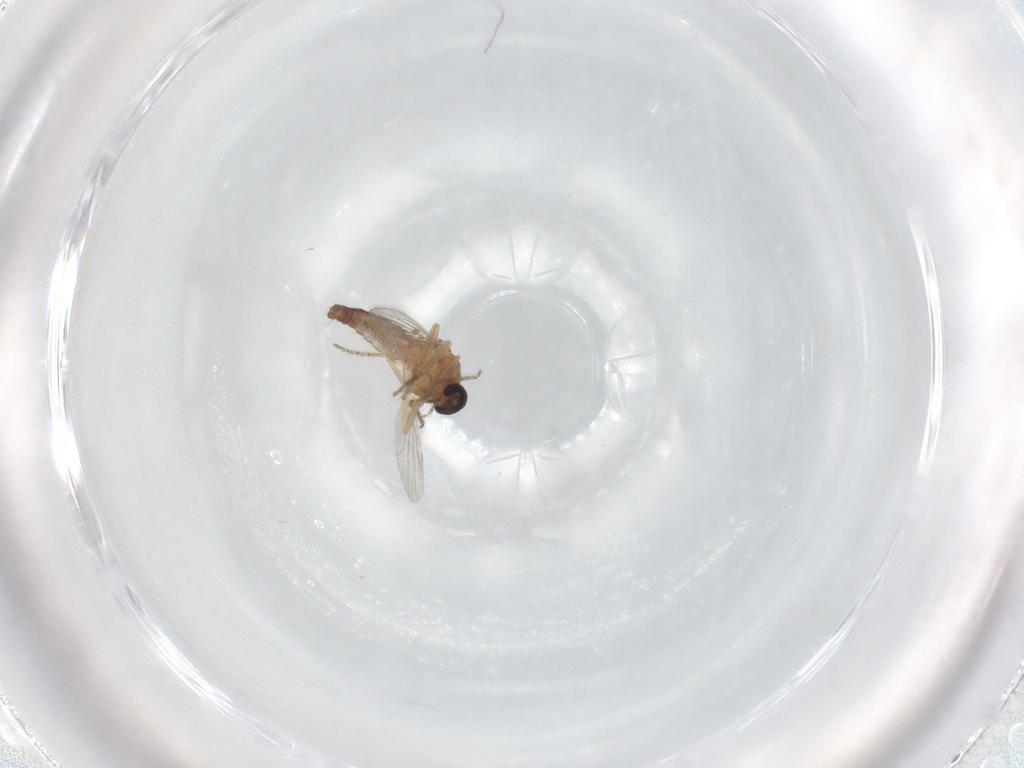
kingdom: Animalia
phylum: Arthropoda
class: Insecta
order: Diptera
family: Ceratopogonidae
